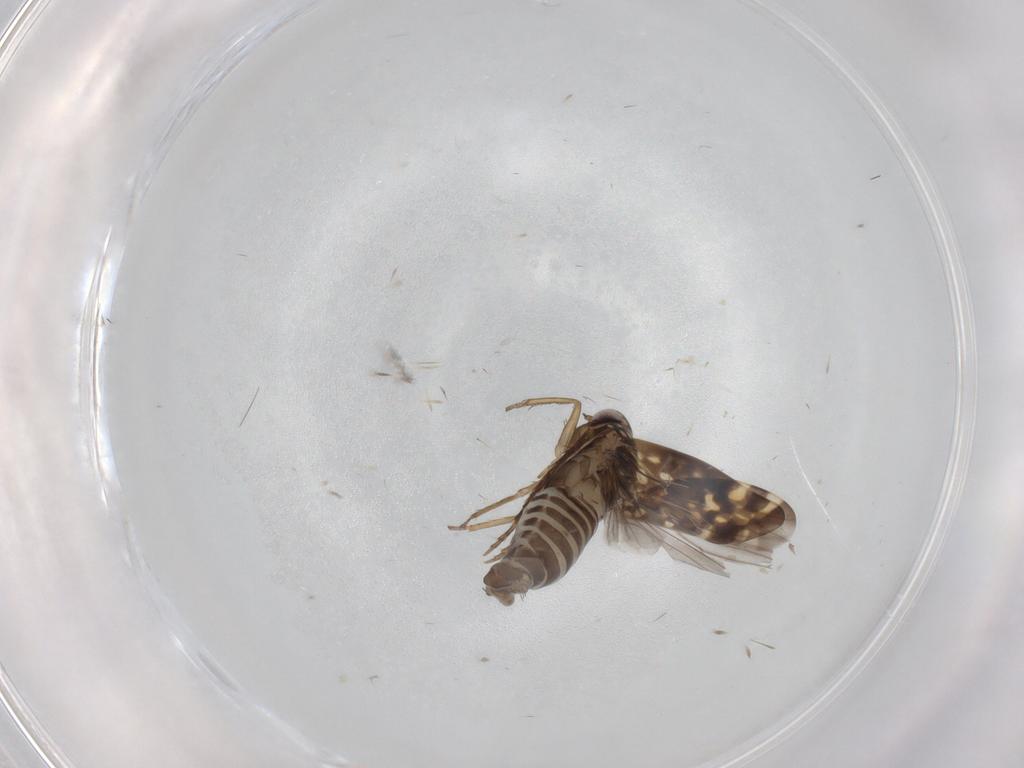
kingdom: Animalia
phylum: Arthropoda
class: Insecta
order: Hemiptera
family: Cicadellidae
